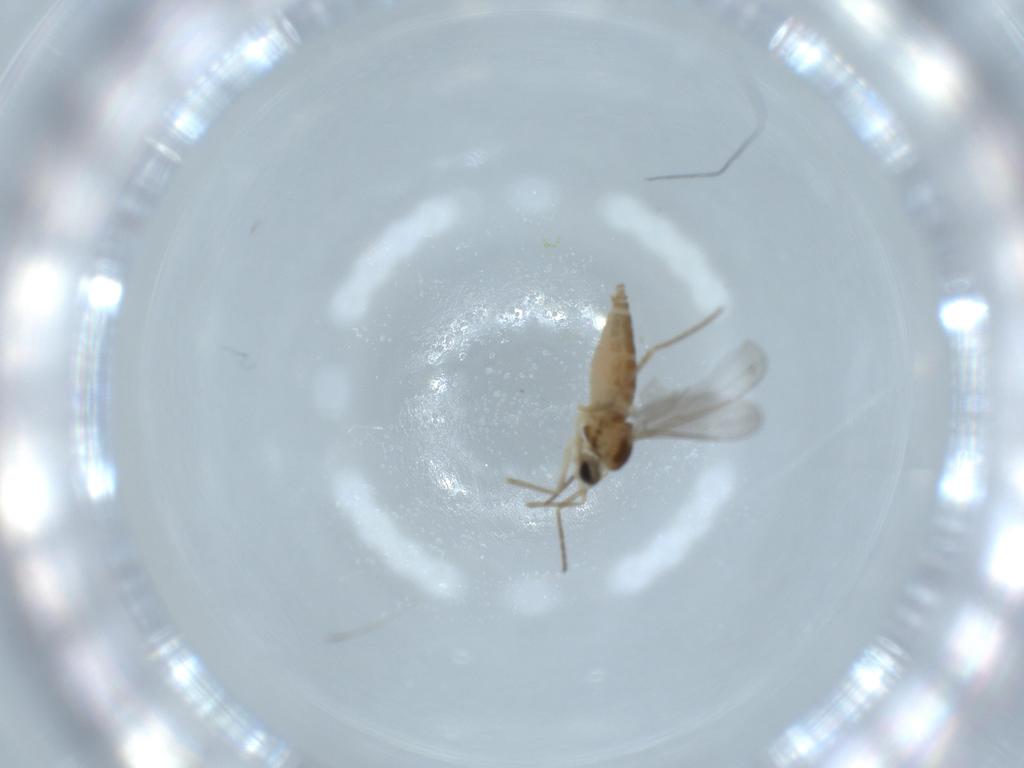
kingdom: Animalia
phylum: Arthropoda
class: Insecta
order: Diptera
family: Cecidomyiidae
